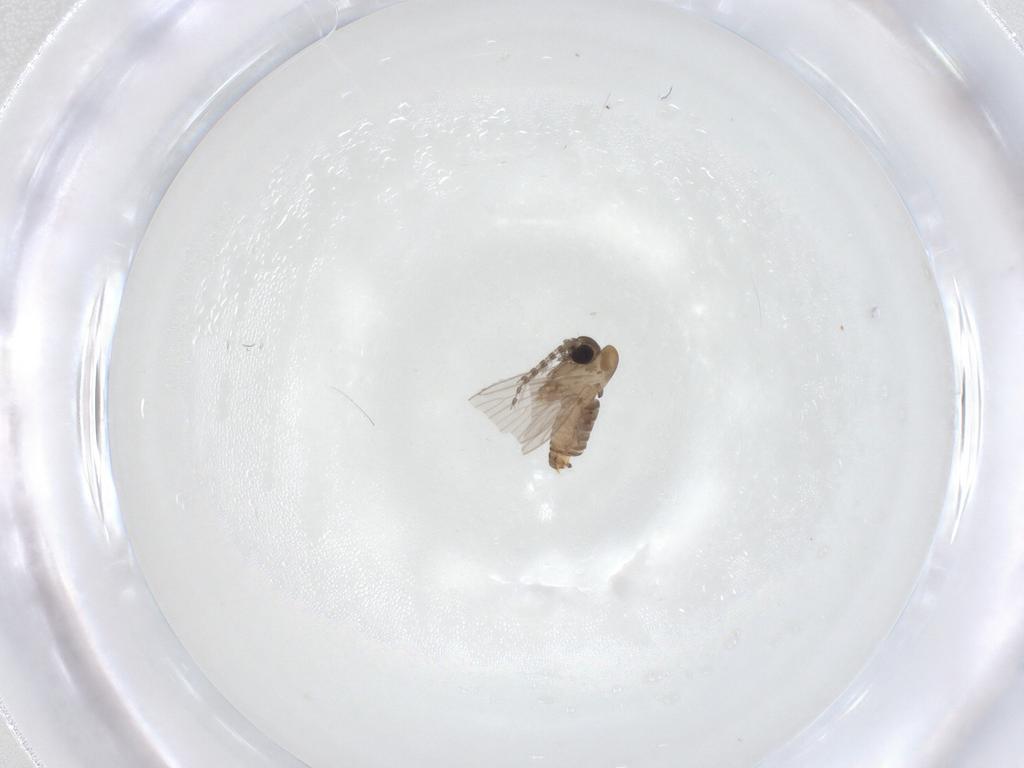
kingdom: Animalia
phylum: Arthropoda
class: Insecta
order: Diptera
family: Psychodidae
